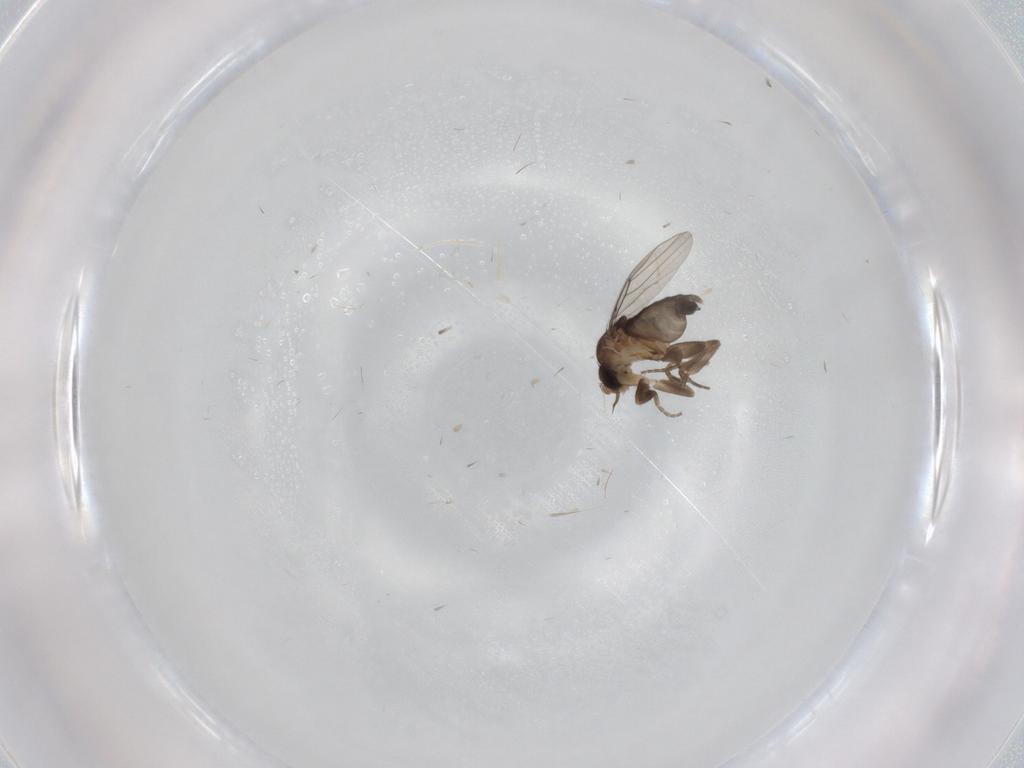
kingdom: Animalia
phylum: Arthropoda
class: Insecta
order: Diptera
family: Phoridae
